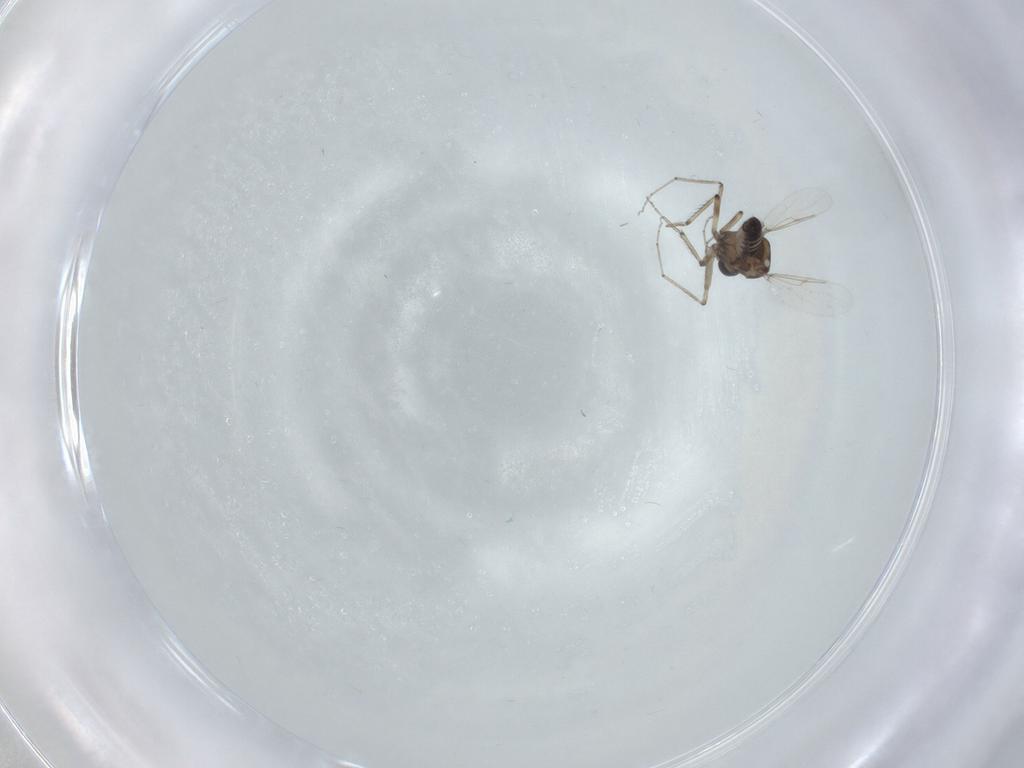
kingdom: Animalia
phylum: Arthropoda
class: Insecta
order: Diptera
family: Ceratopogonidae
